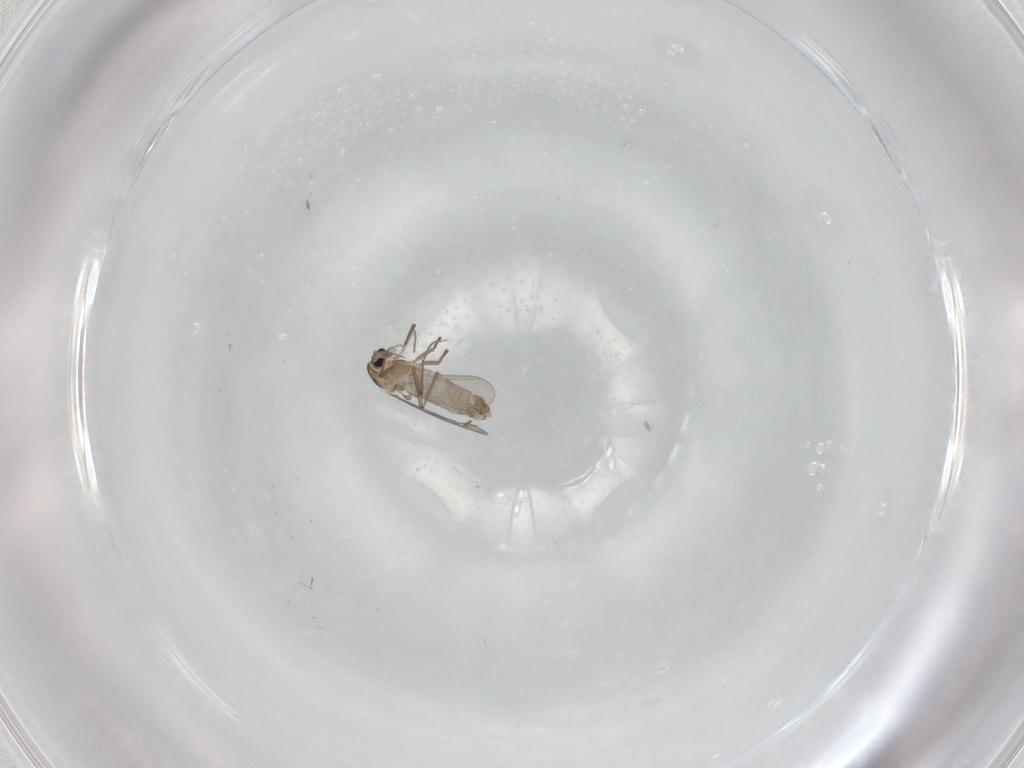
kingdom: Animalia
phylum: Arthropoda
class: Insecta
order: Diptera
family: Chironomidae
